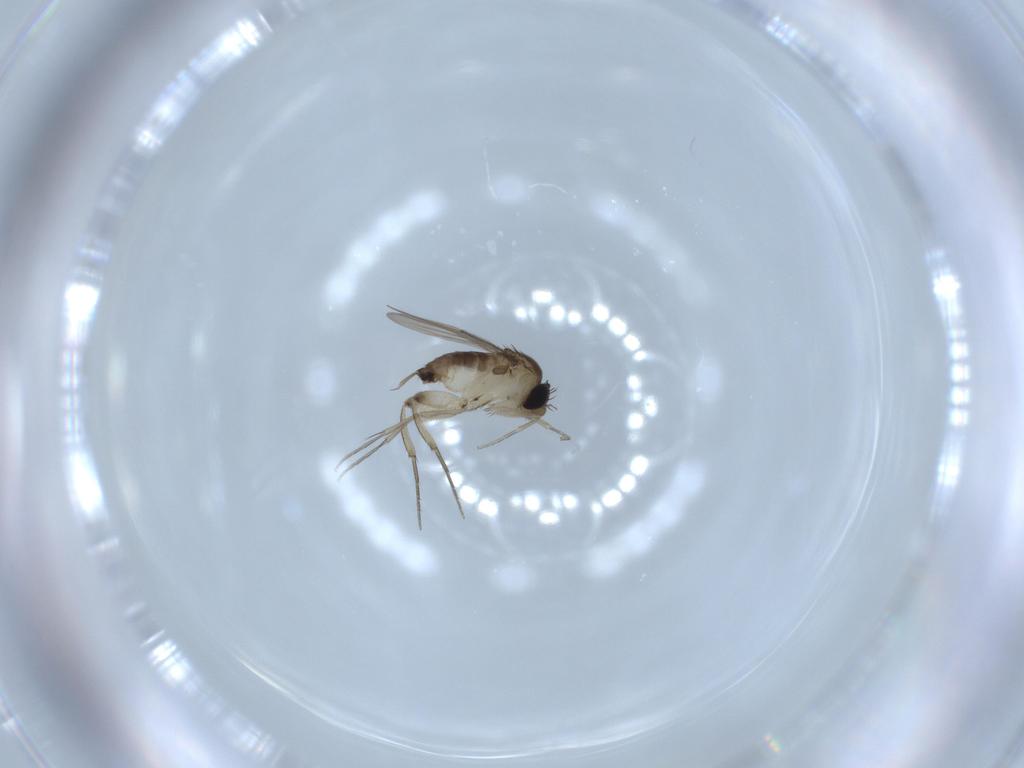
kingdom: Animalia
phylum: Arthropoda
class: Insecta
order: Diptera
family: Phoridae
